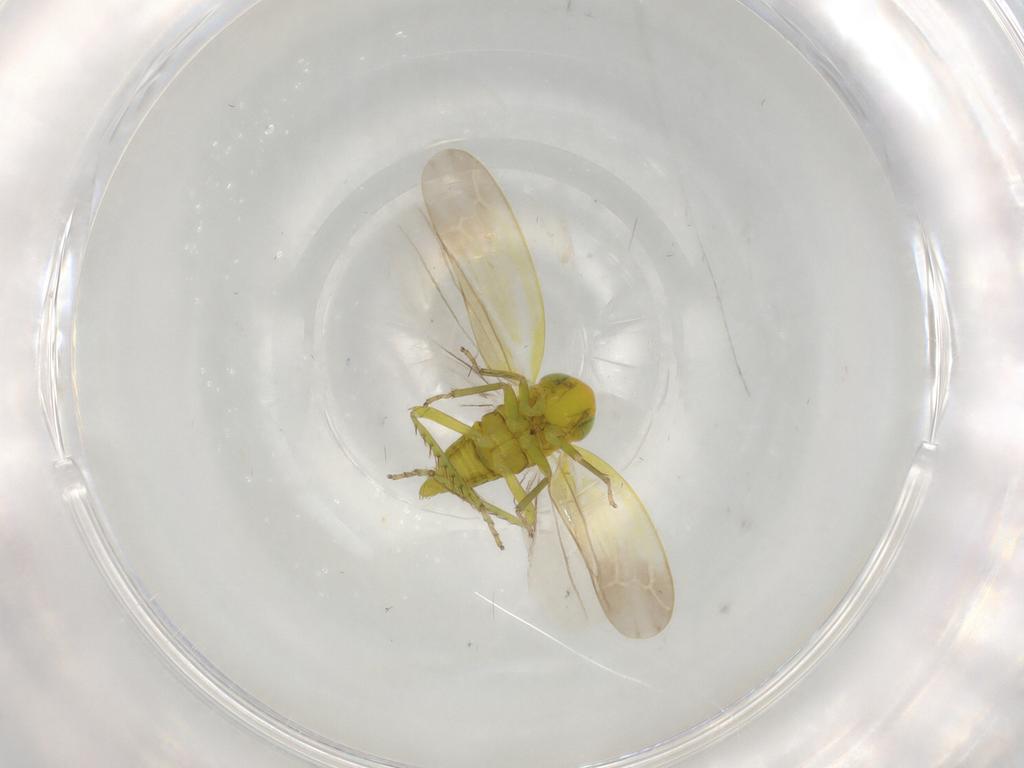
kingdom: Animalia
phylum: Arthropoda
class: Insecta
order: Hemiptera
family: Cicadellidae
